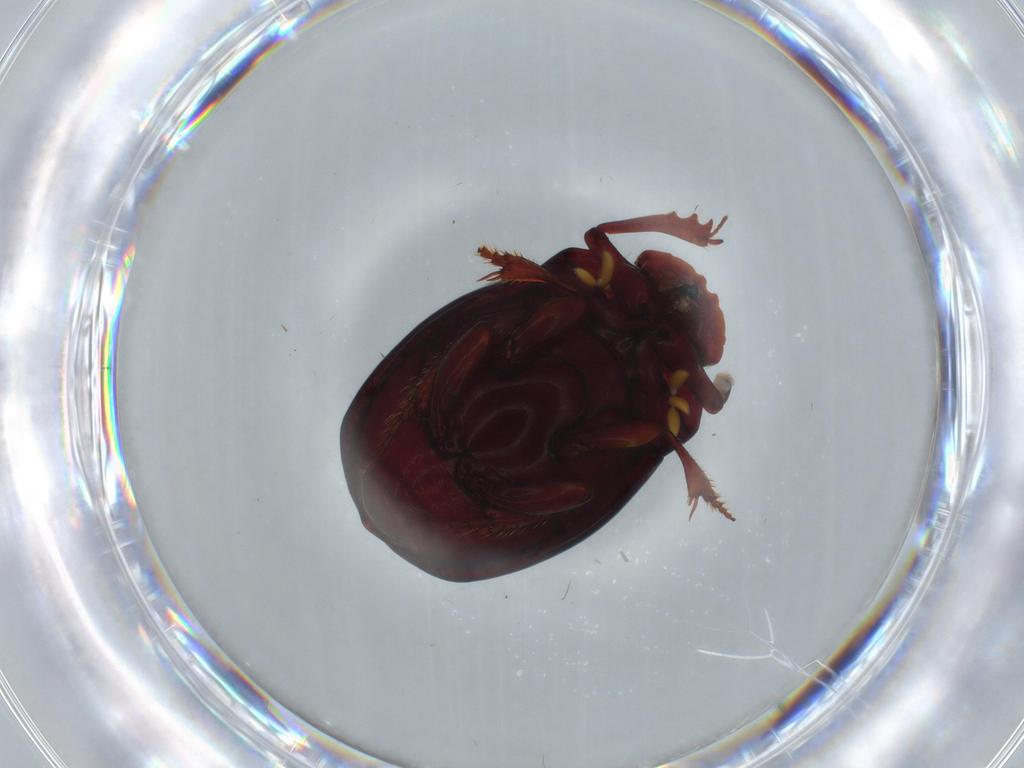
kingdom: Animalia
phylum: Arthropoda
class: Insecta
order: Coleoptera
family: Scarabaeidae
